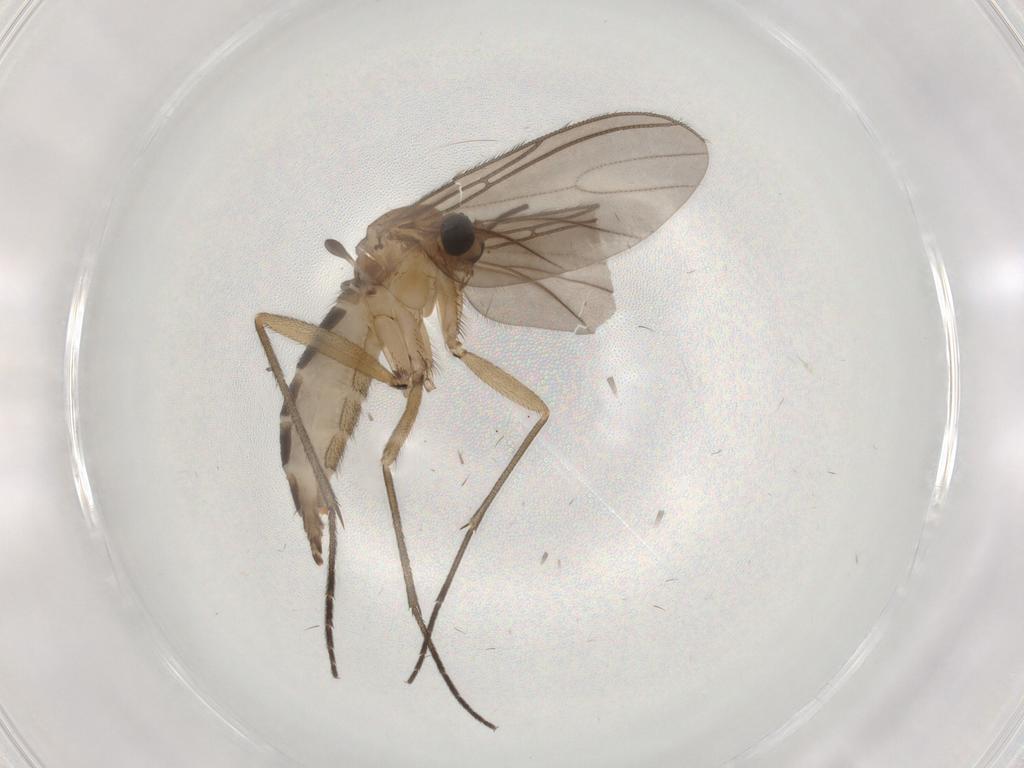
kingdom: Animalia
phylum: Arthropoda
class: Insecta
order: Diptera
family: Sciaridae
